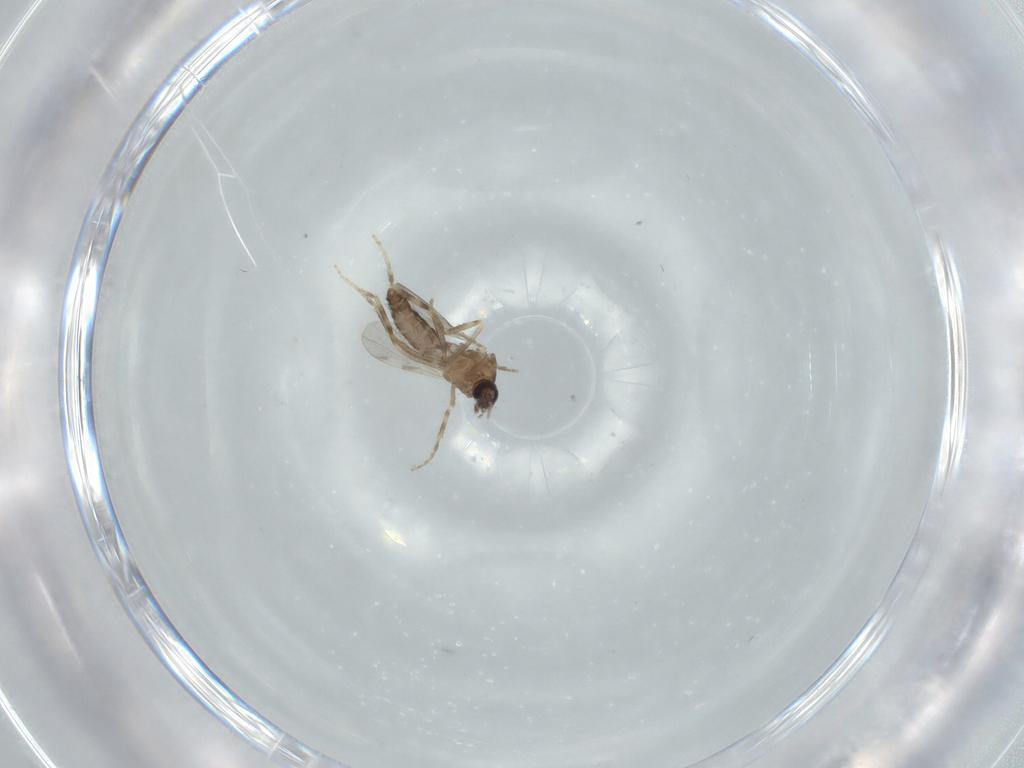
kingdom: Animalia
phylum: Arthropoda
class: Insecta
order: Diptera
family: Ceratopogonidae
